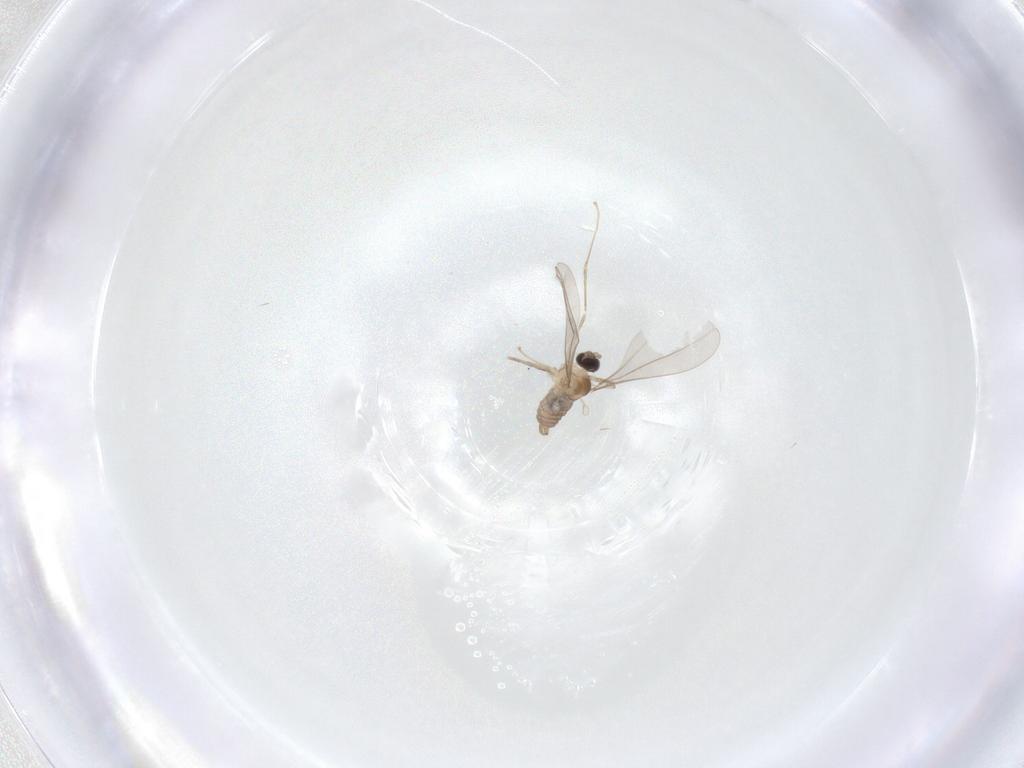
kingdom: Animalia
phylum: Arthropoda
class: Insecta
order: Diptera
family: Cecidomyiidae
